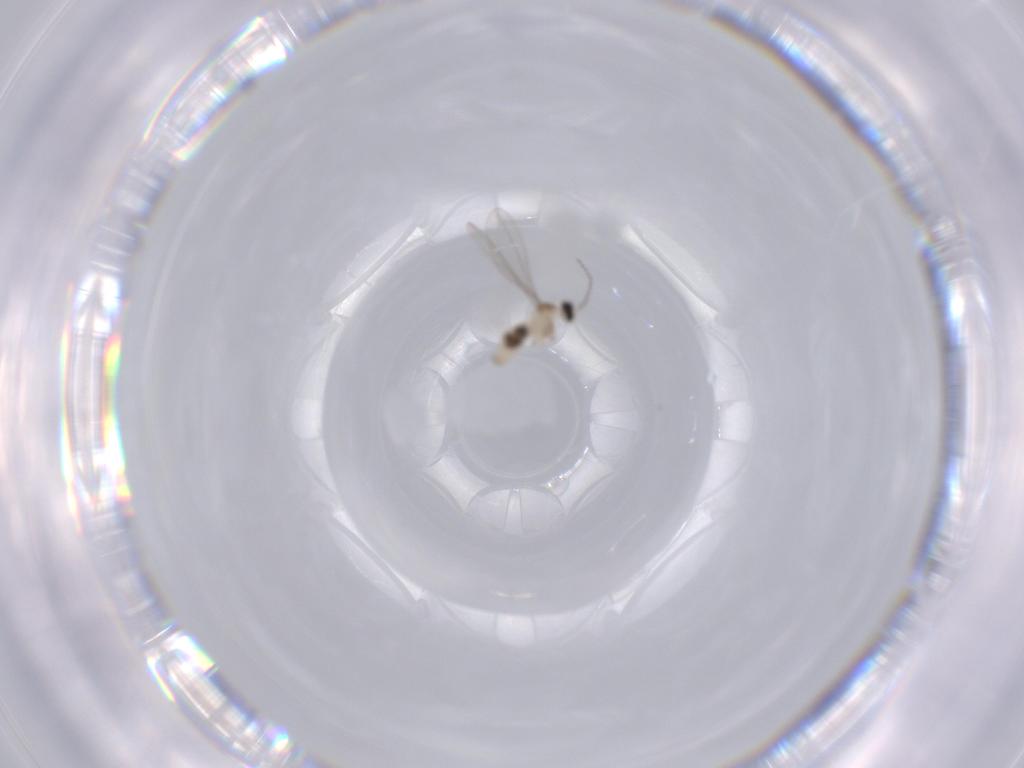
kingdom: Animalia
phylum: Arthropoda
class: Insecta
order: Diptera
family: Cecidomyiidae
